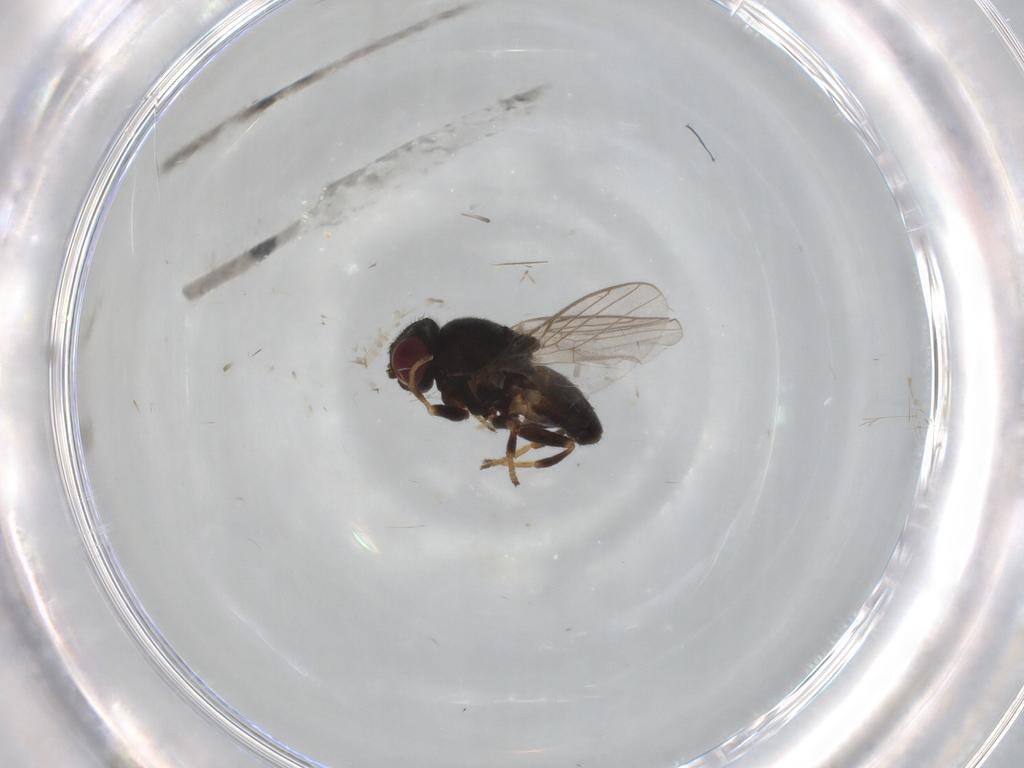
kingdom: Animalia
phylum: Arthropoda
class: Insecta
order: Diptera
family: Chloropidae
